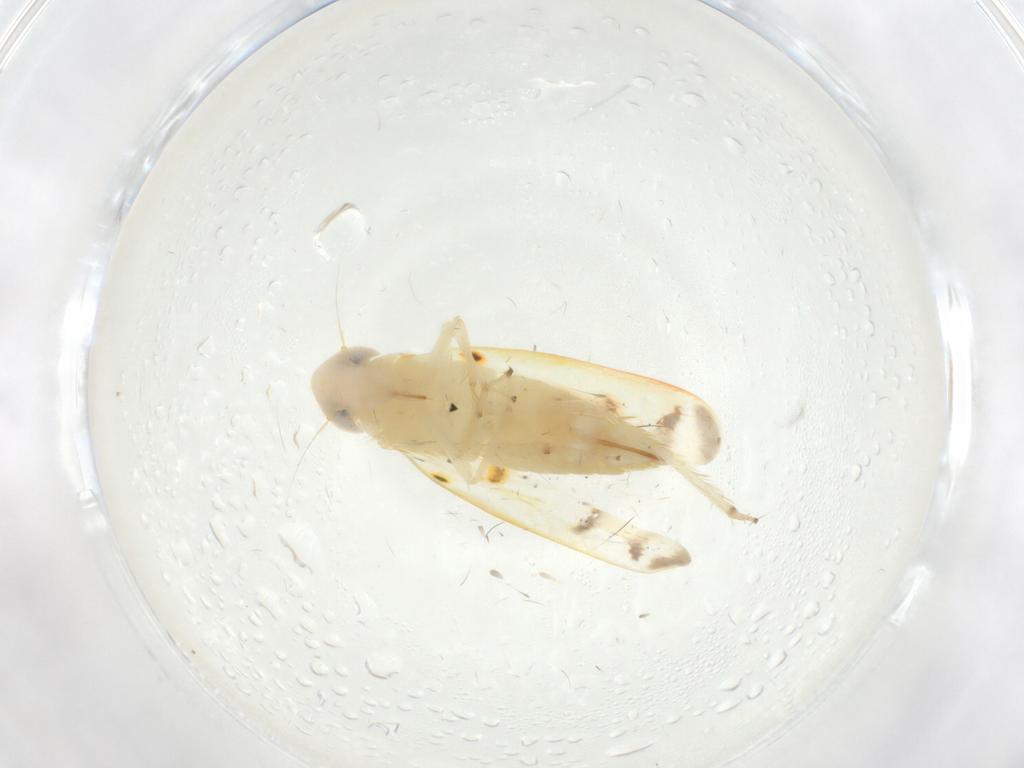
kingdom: Animalia
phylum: Arthropoda
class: Insecta
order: Hemiptera
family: Cicadellidae
